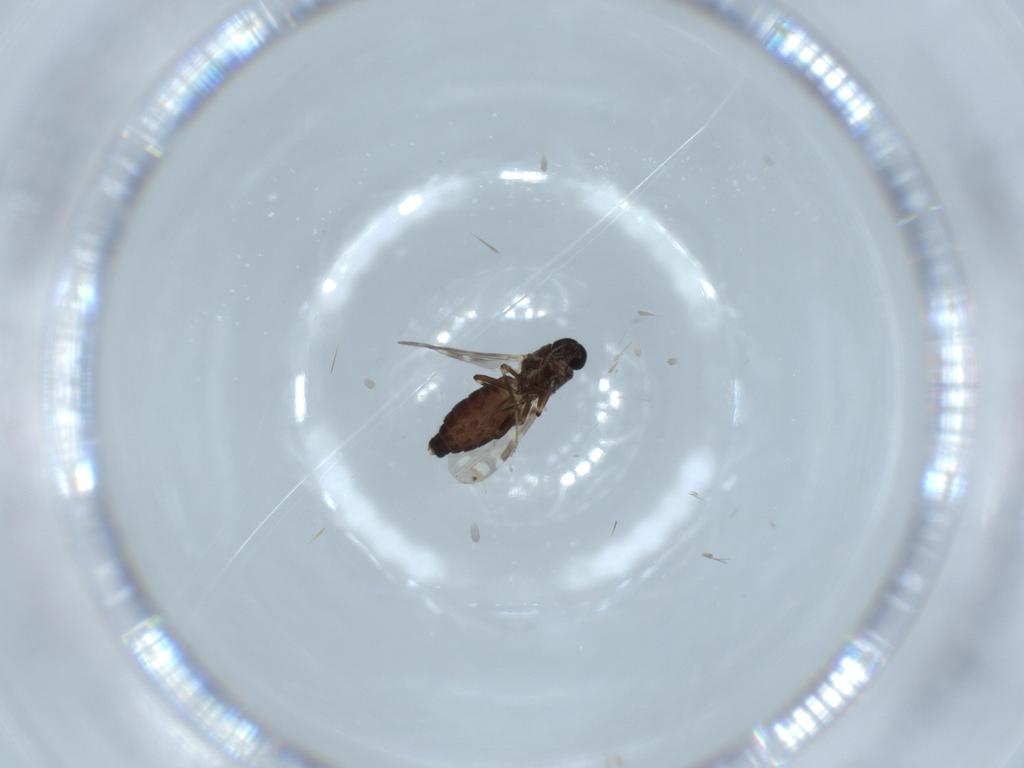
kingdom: Animalia
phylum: Arthropoda
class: Insecta
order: Diptera
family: Ceratopogonidae
